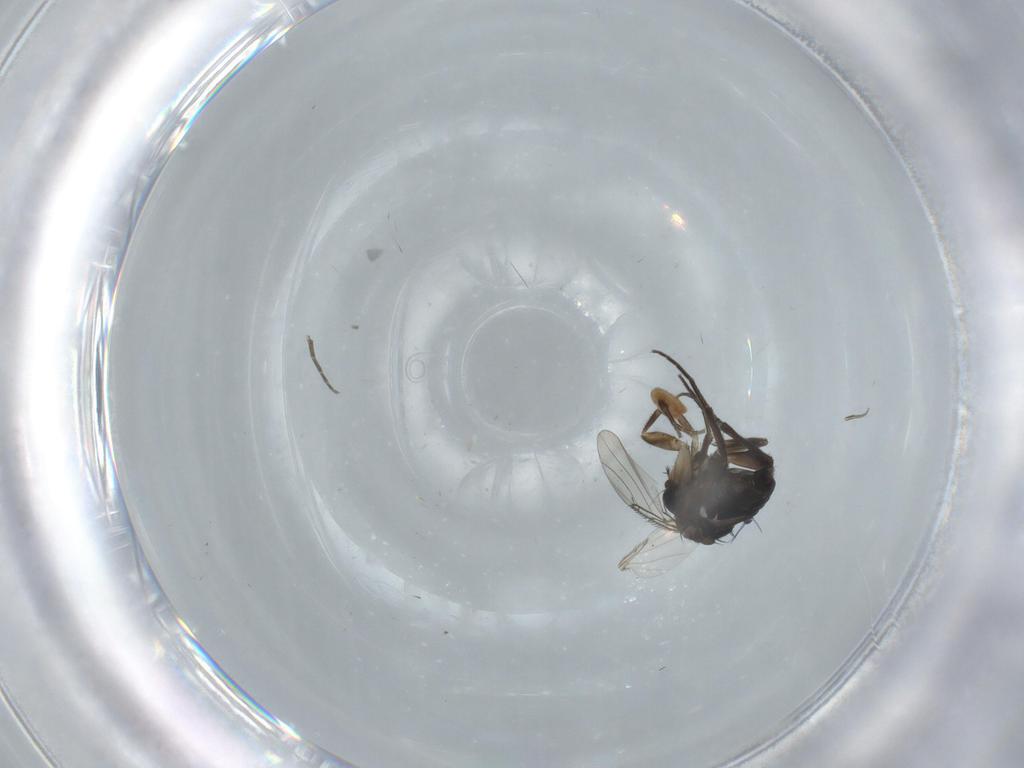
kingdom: Animalia
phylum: Arthropoda
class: Insecta
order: Diptera
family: Phoridae
